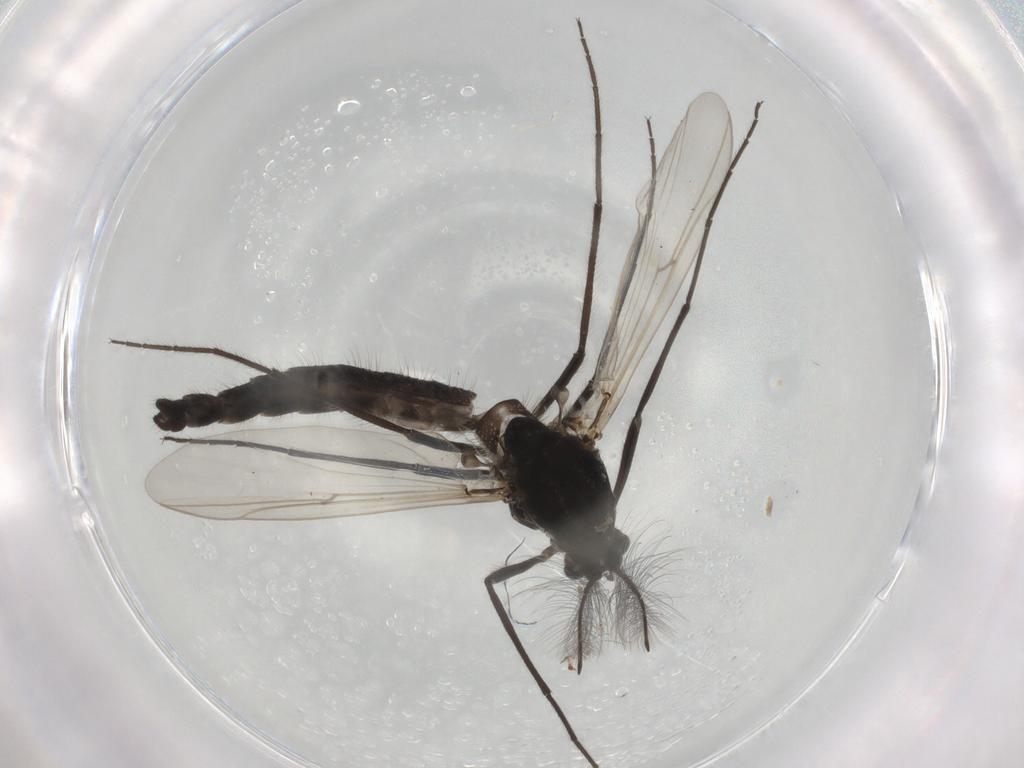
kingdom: Animalia
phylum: Arthropoda
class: Insecta
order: Diptera
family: Chironomidae
